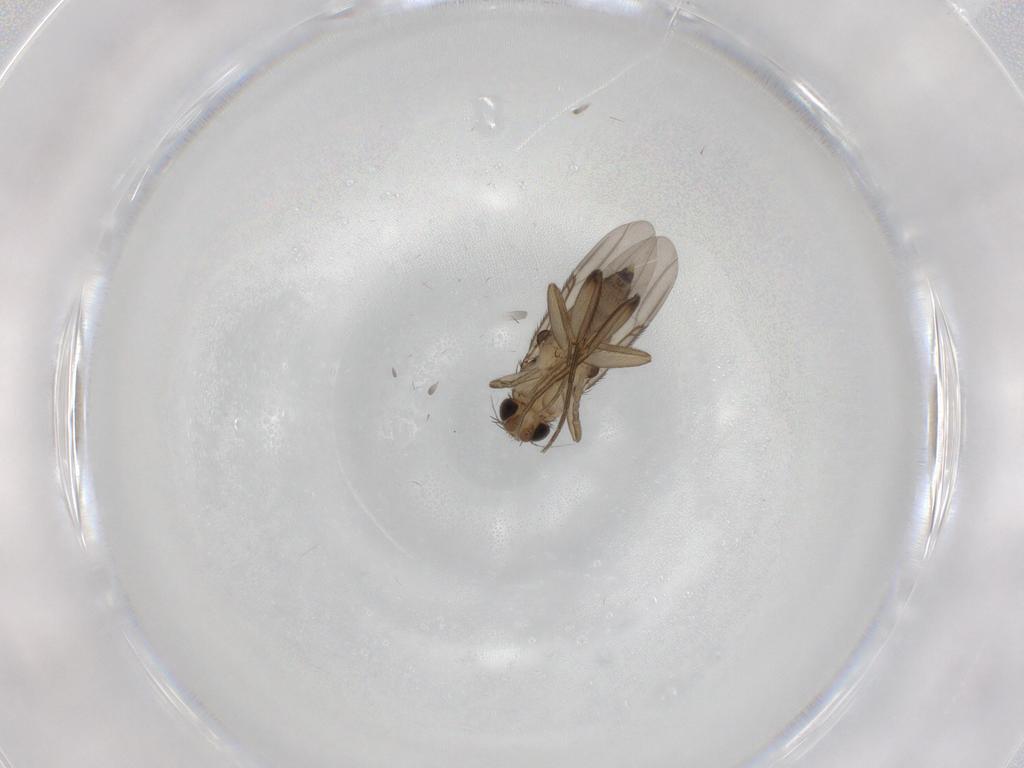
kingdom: Animalia
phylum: Arthropoda
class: Insecta
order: Diptera
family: Phoridae
